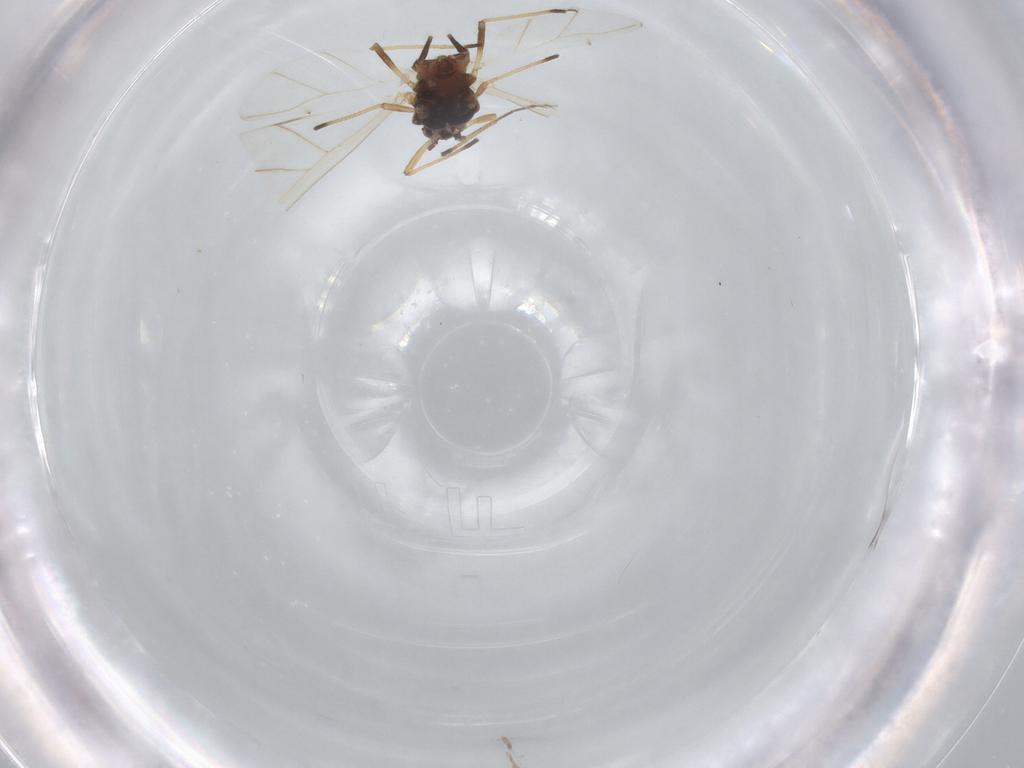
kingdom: Animalia
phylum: Arthropoda
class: Insecta
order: Hemiptera
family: Aphididae
